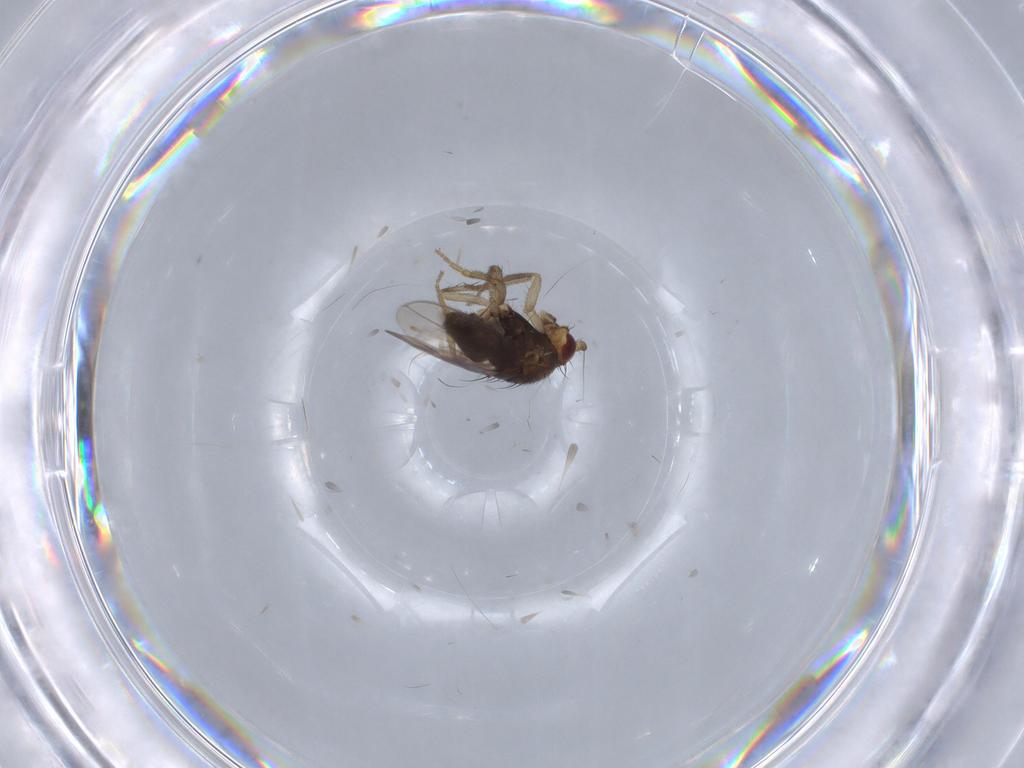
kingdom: Animalia
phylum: Arthropoda
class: Insecta
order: Diptera
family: Sphaeroceridae
